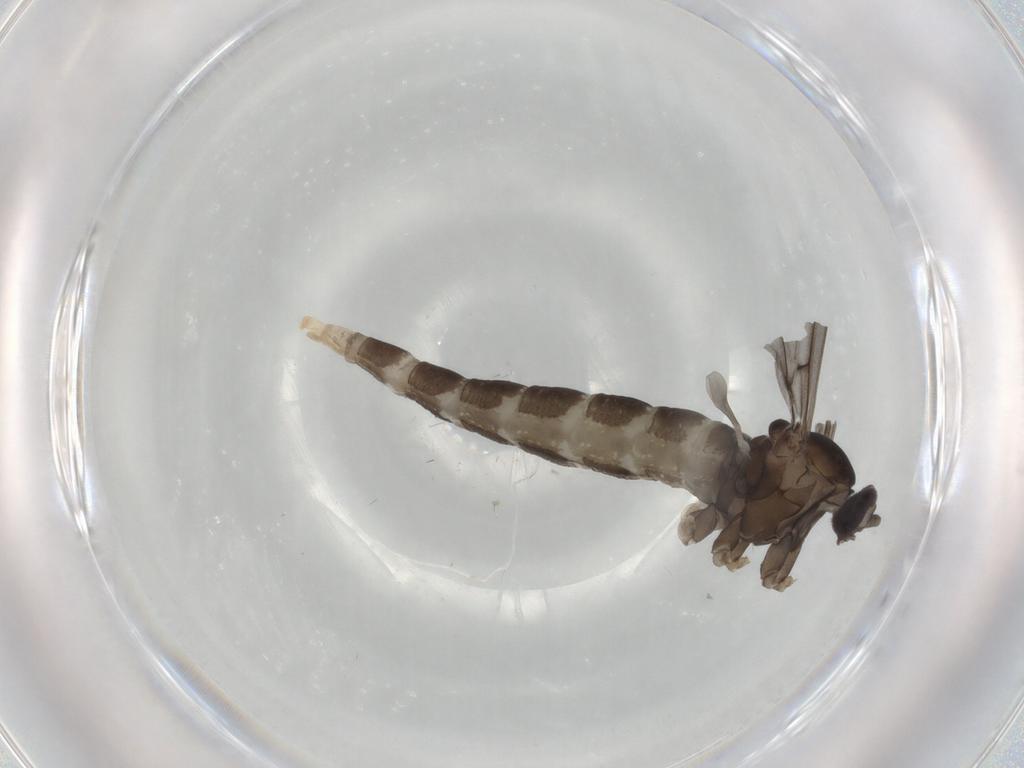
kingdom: Animalia
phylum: Arthropoda
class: Insecta
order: Diptera
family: Cecidomyiidae
